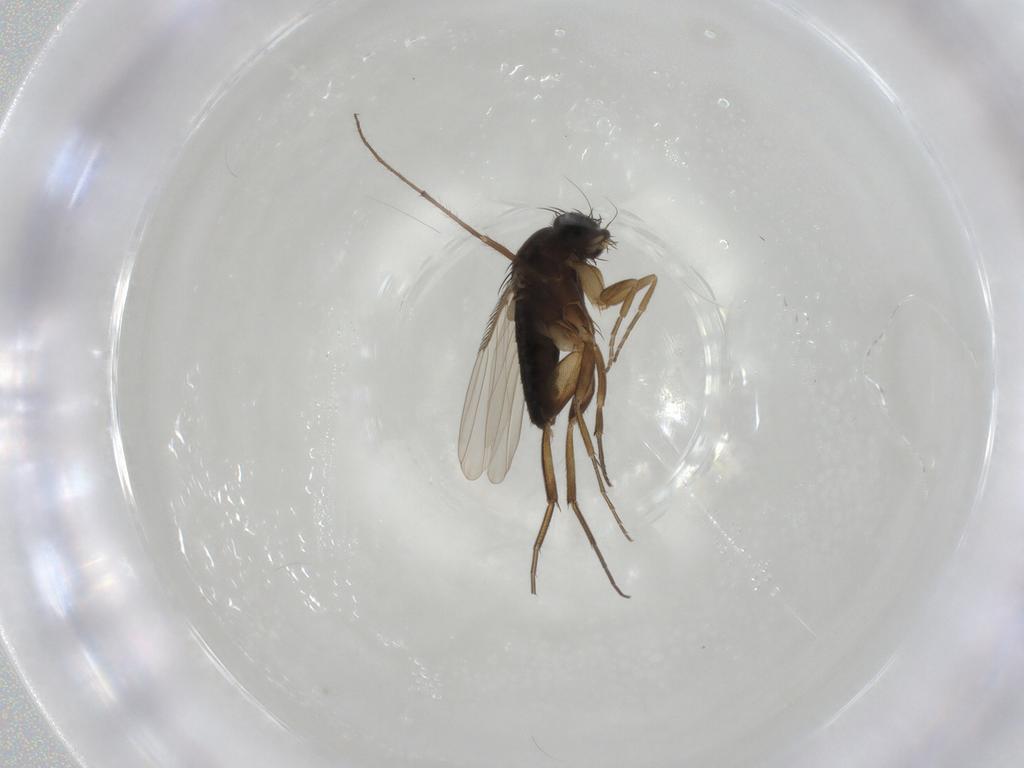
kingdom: Animalia
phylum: Arthropoda
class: Insecta
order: Diptera
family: Phoridae
